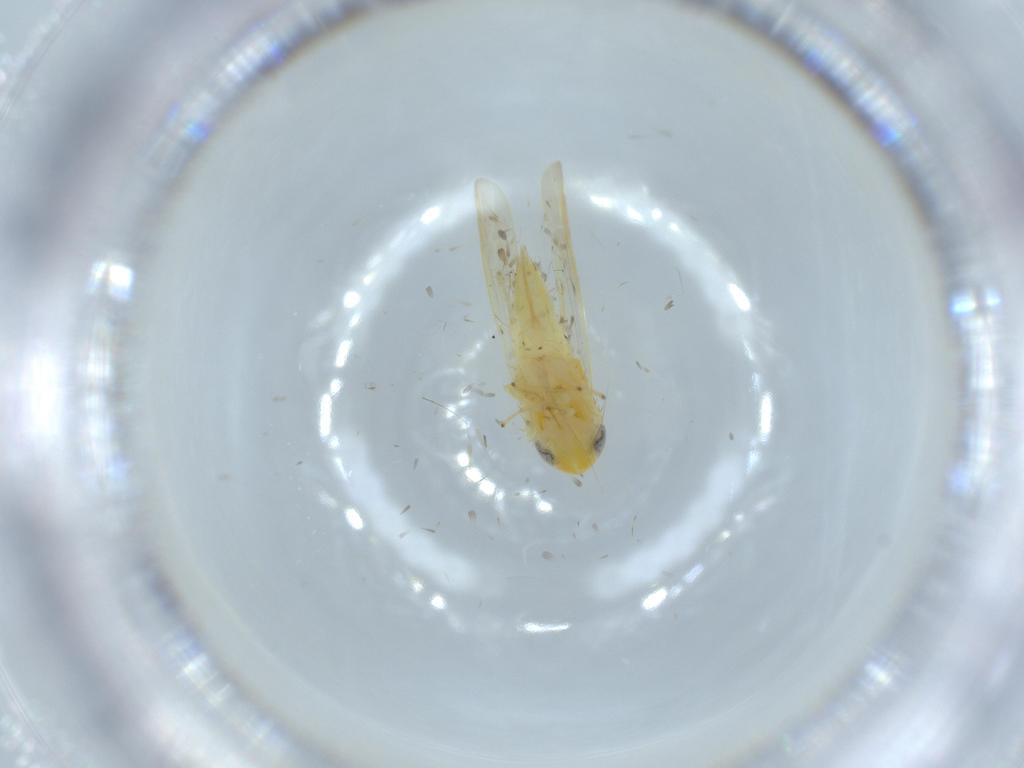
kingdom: Animalia
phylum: Arthropoda
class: Insecta
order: Hemiptera
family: Cicadellidae
